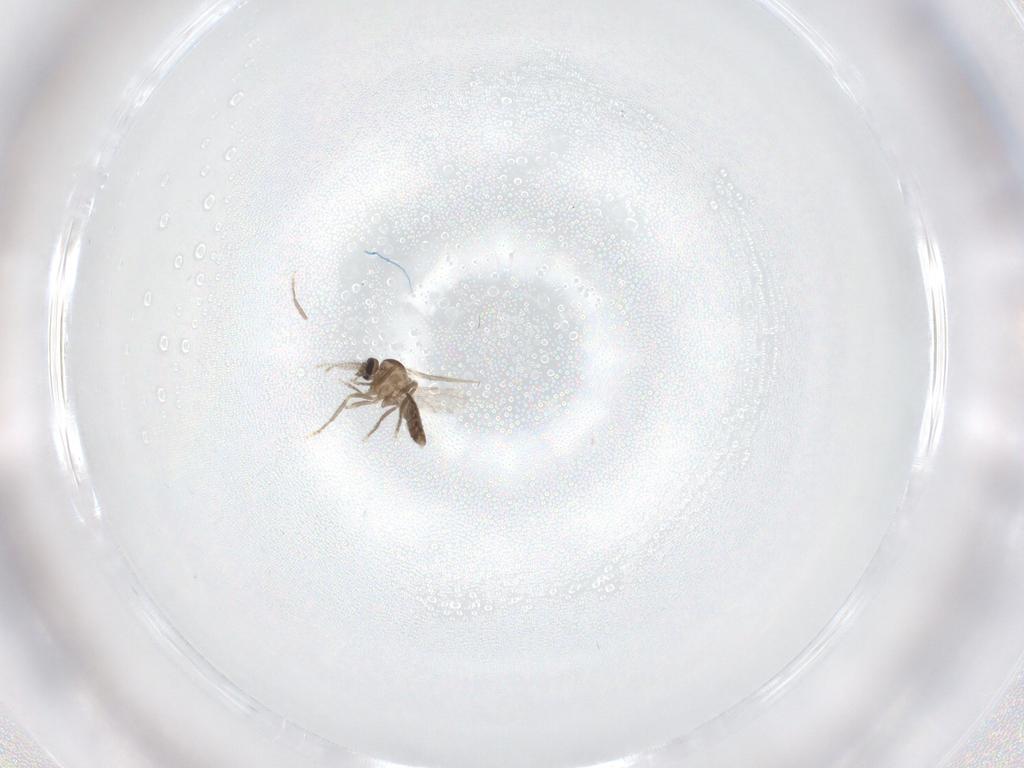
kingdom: Animalia
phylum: Arthropoda
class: Insecta
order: Diptera
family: Ceratopogonidae
